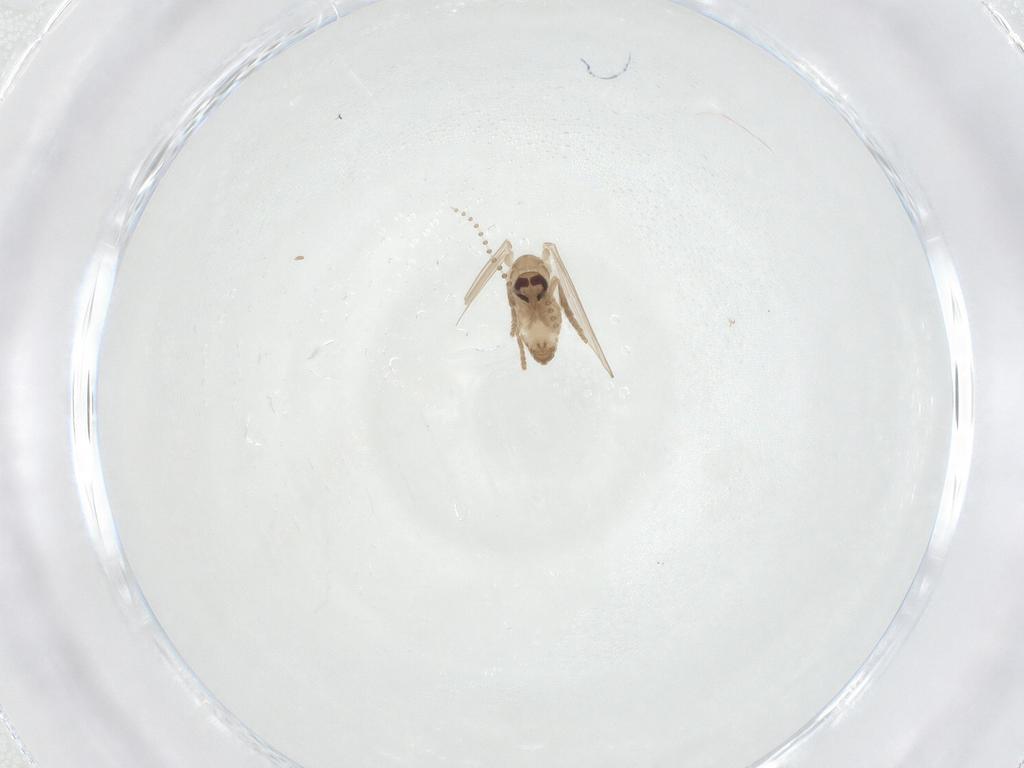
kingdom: Animalia
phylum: Arthropoda
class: Insecta
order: Diptera
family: Psychodidae
